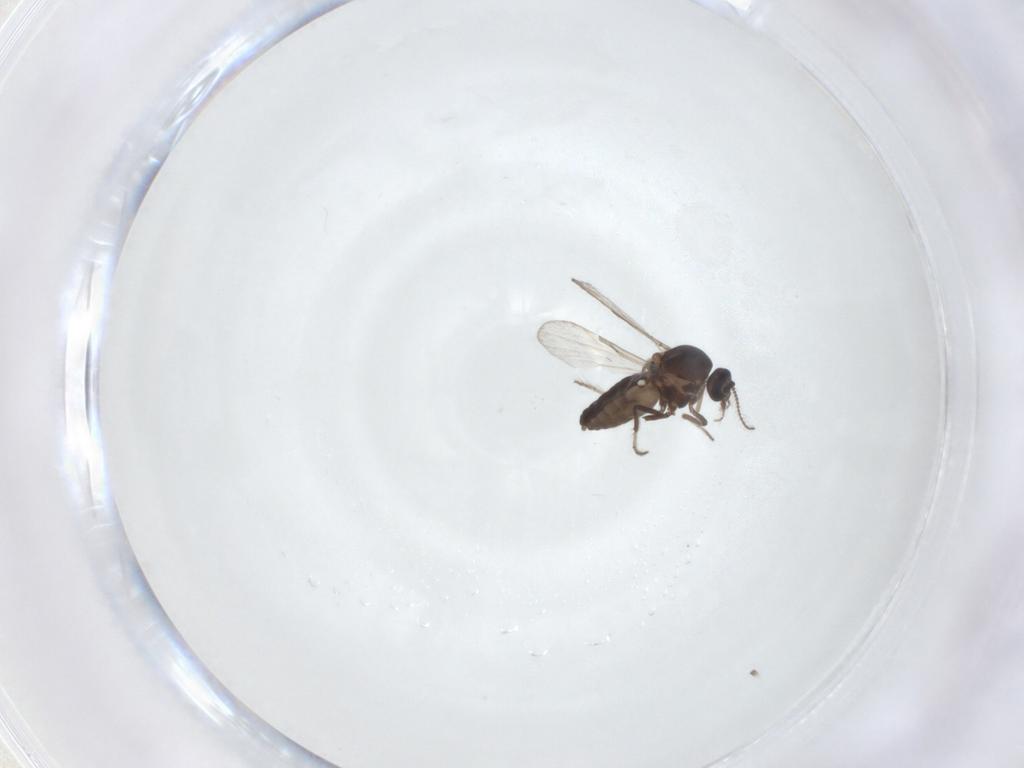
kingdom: Animalia
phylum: Arthropoda
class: Insecta
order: Diptera
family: Ceratopogonidae
